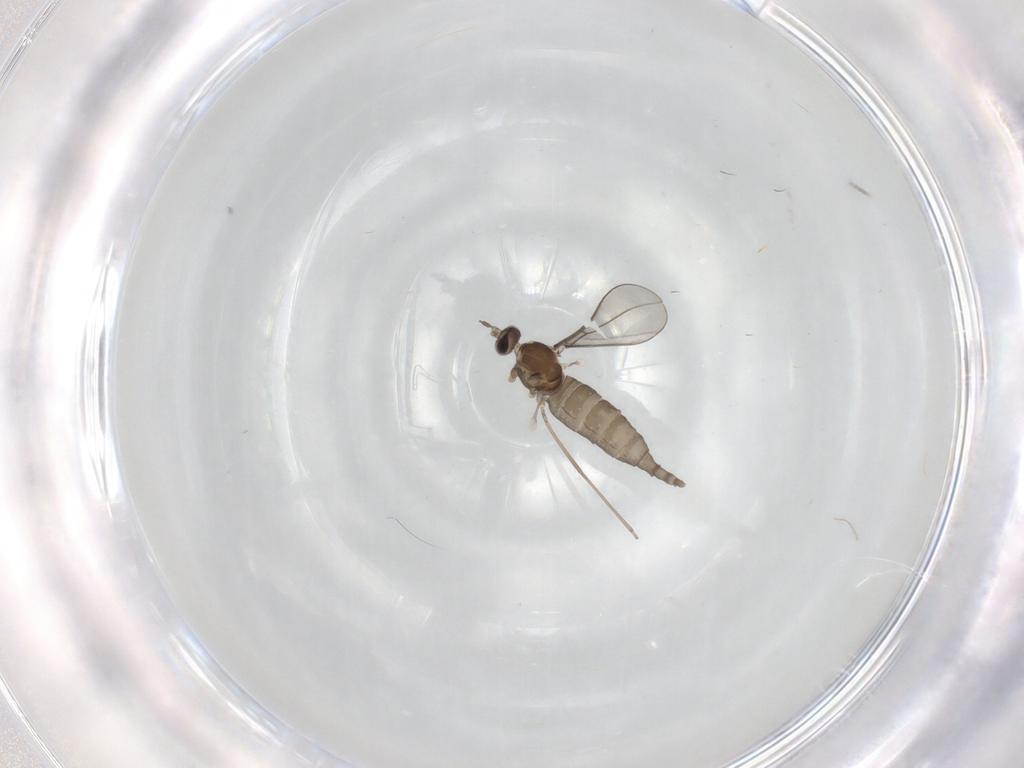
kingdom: Animalia
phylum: Arthropoda
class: Insecta
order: Diptera
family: Cecidomyiidae
